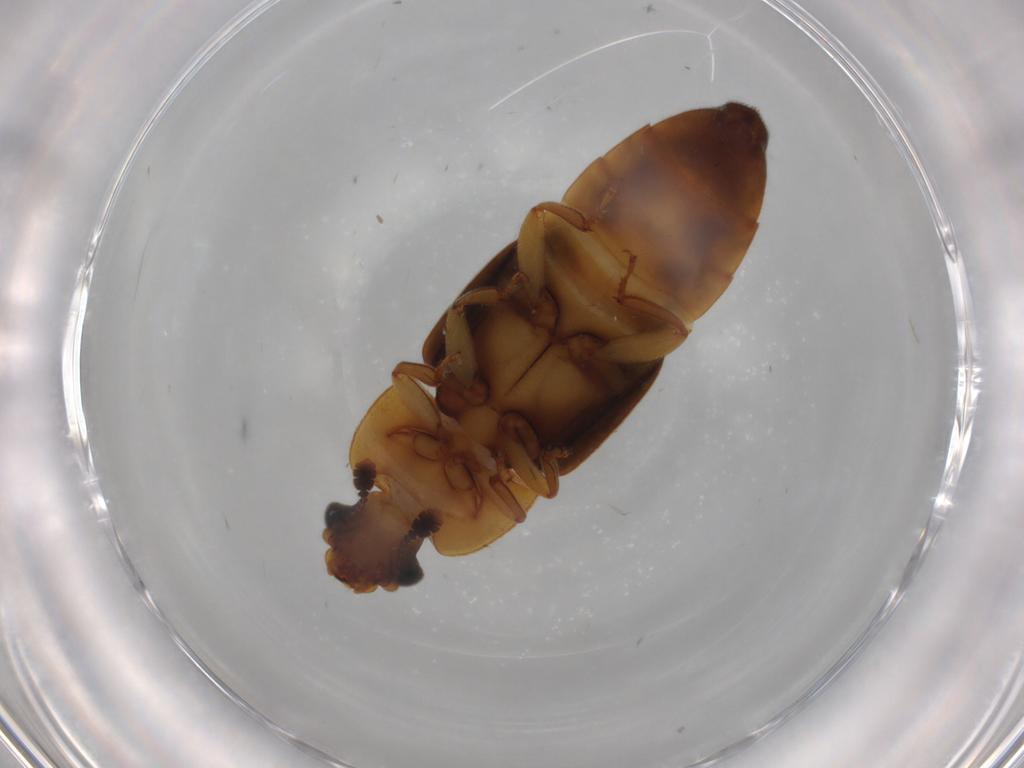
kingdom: Animalia
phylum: Arthropoda
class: Insecta
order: Coleoptera
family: Nitidulidae
